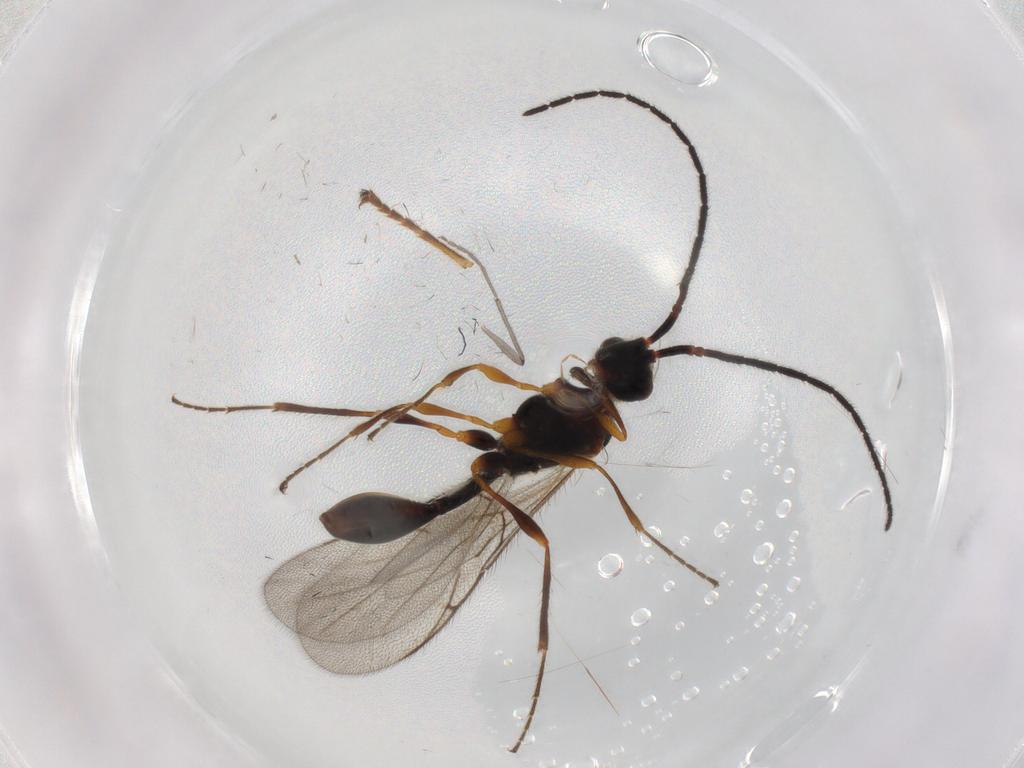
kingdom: Animalia
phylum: Arthropoda
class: Insecta
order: Hymenoptera
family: Diapriidae
